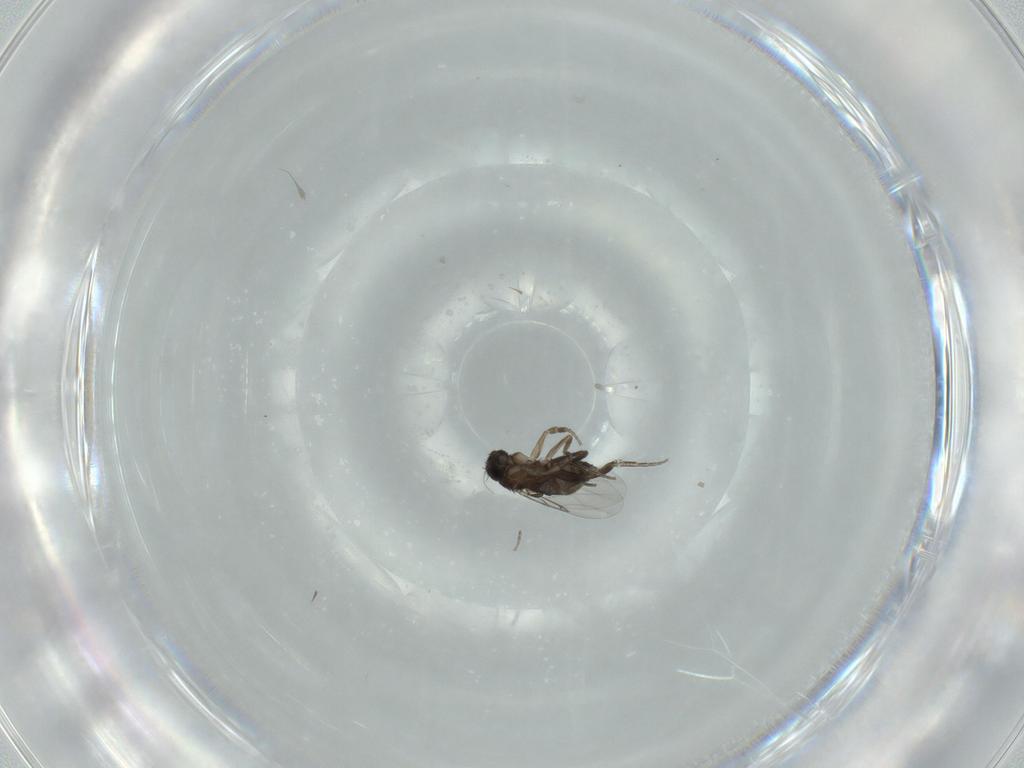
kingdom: Animalia
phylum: Arthropoda
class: Insecta
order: Diptera
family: Phoridae
